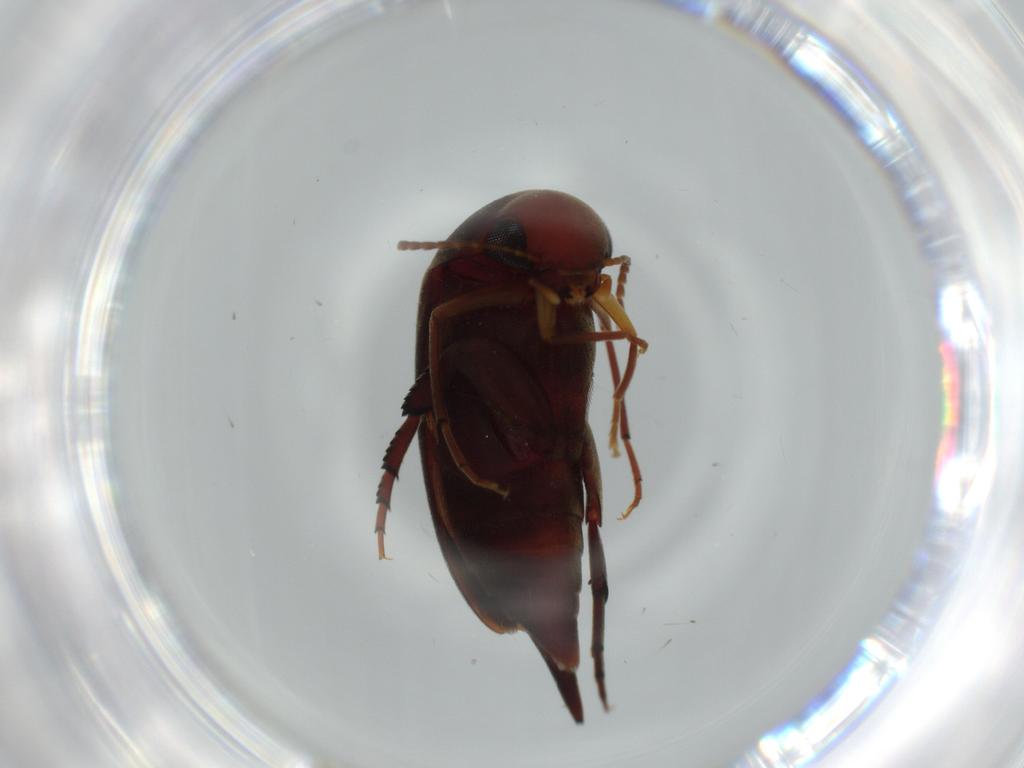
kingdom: Animalia
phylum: Arthropoda
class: Insecta
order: Coleoptera
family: Mordellidae
